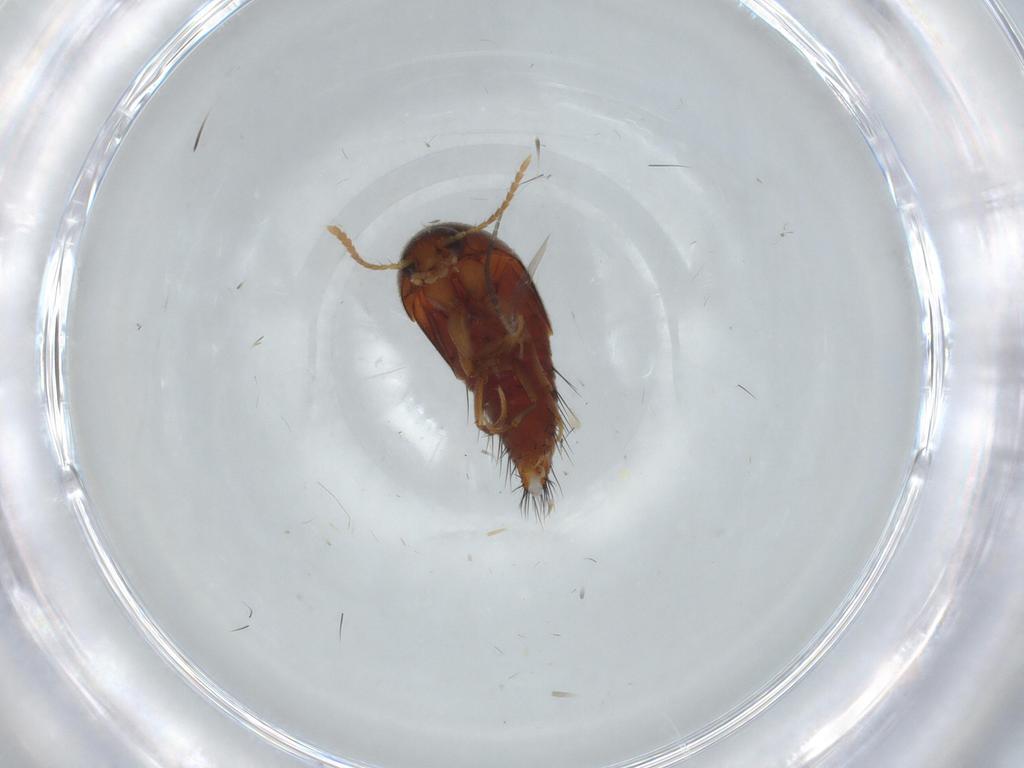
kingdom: Animalia
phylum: Arthropoda
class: Insecta
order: Coleoptera
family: Staphylinidae
